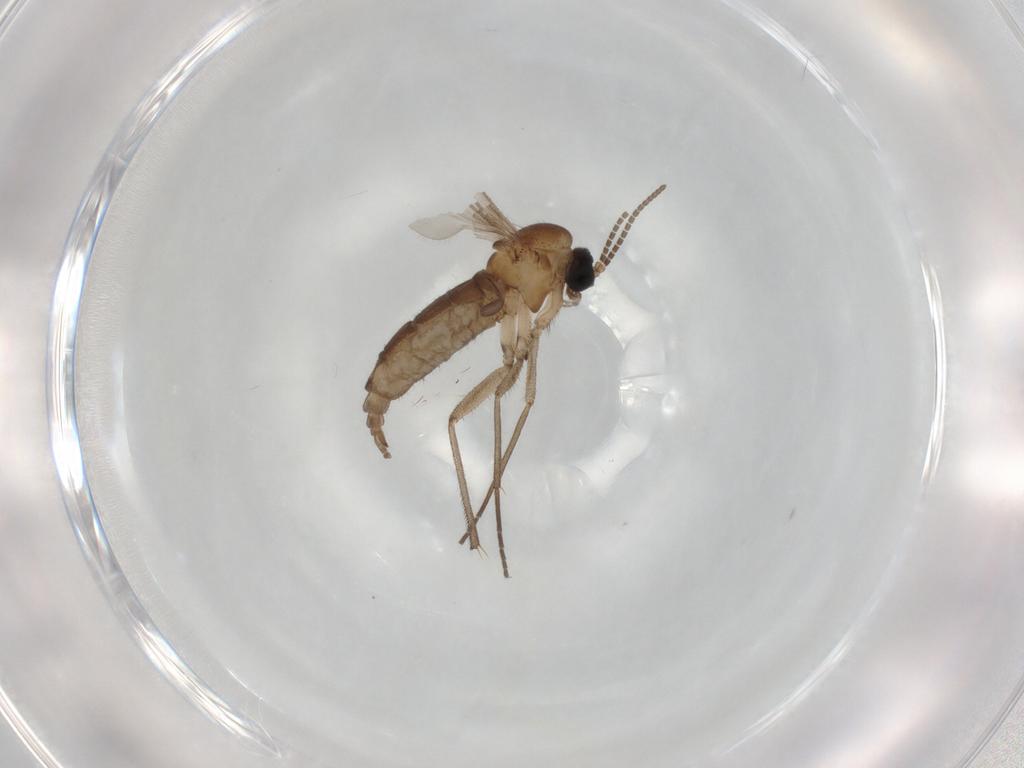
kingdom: Animalia
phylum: Arthropoda
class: Insecta
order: Diptera
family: Sciaridae
